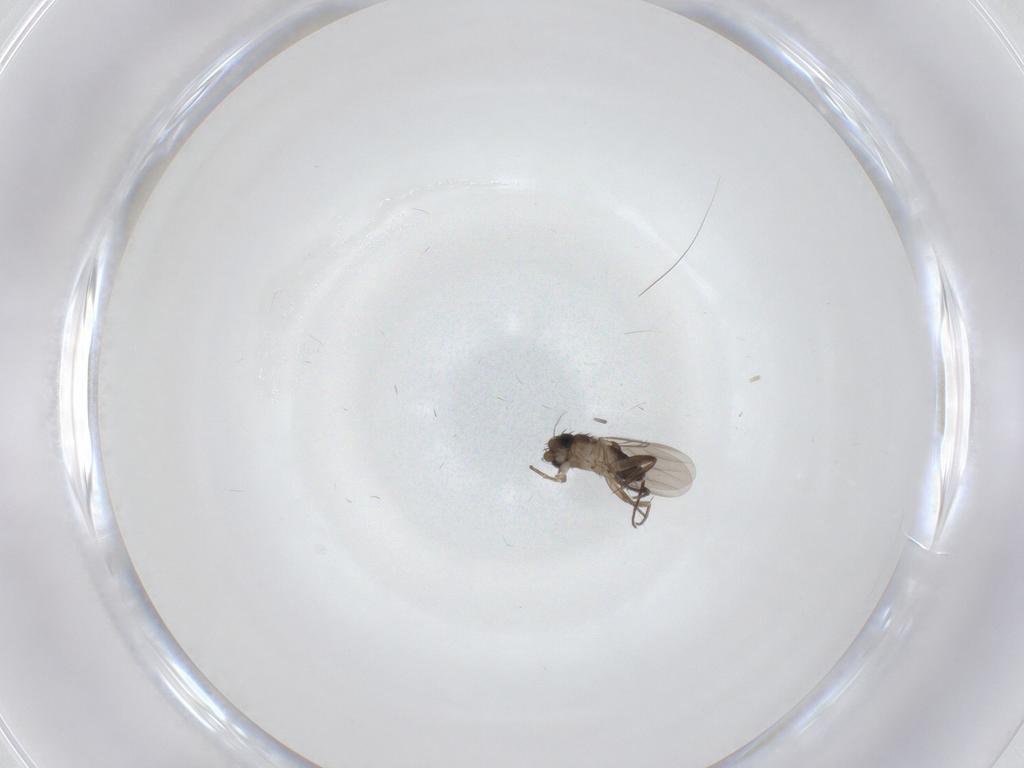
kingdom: Animalia
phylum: Arthropoda
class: Insecta
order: Diptera
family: Phoridae
